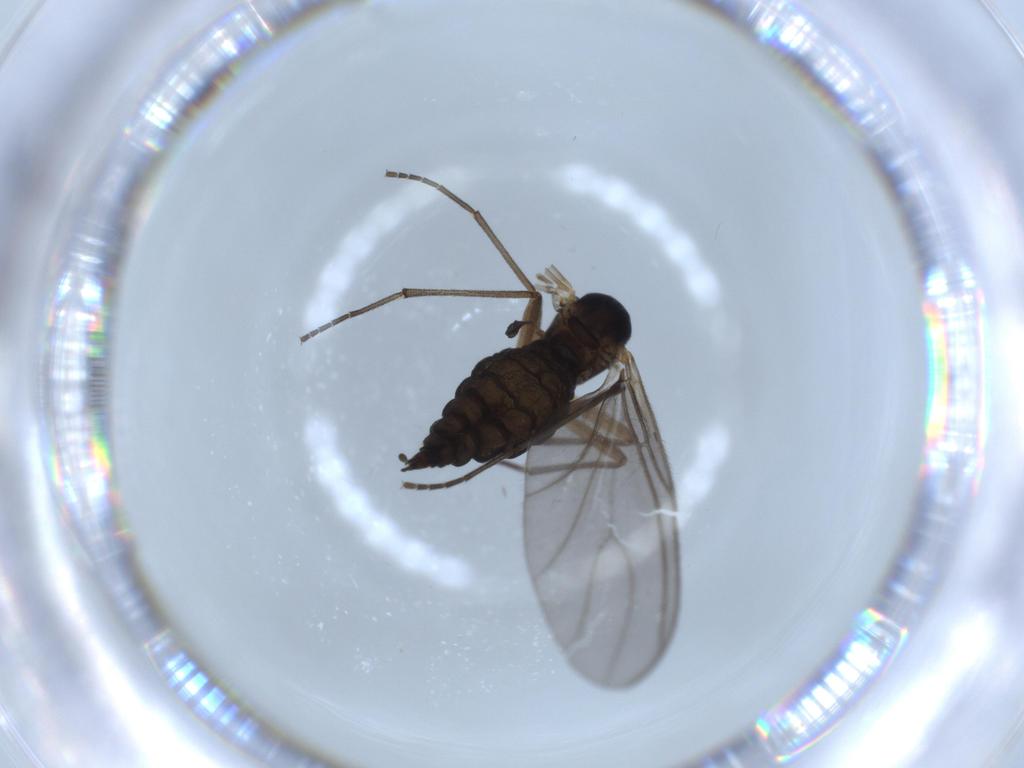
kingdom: Animalia
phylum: Arthropoda
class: Insecta
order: Diptera
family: Sciaridae
